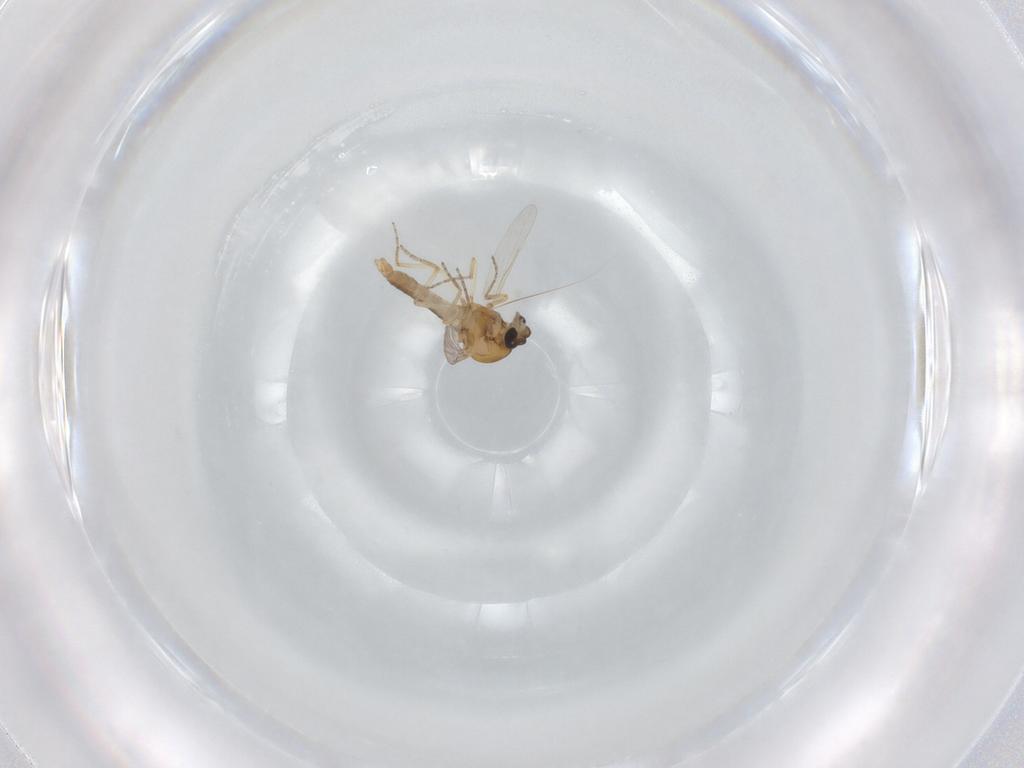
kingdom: Animalia
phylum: Arthropoda
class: Insecta
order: Diptera
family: Ceratopogonidae
